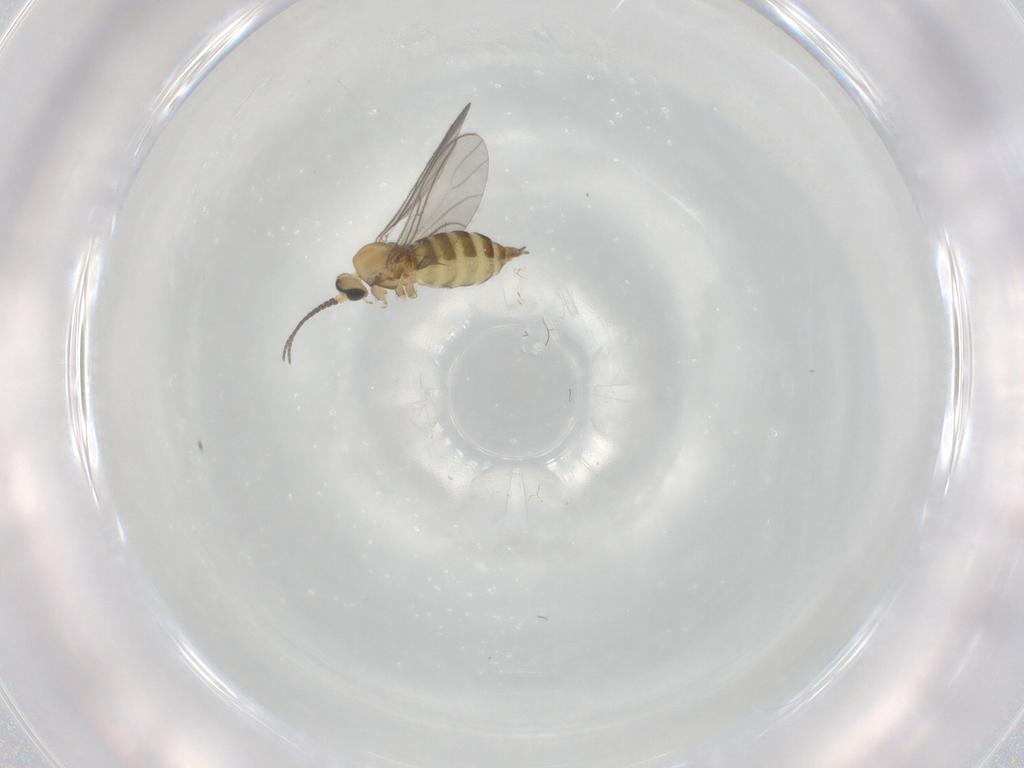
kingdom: Animalia
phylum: Arthropoda
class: Insecta
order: Diptera
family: Sciaridae
